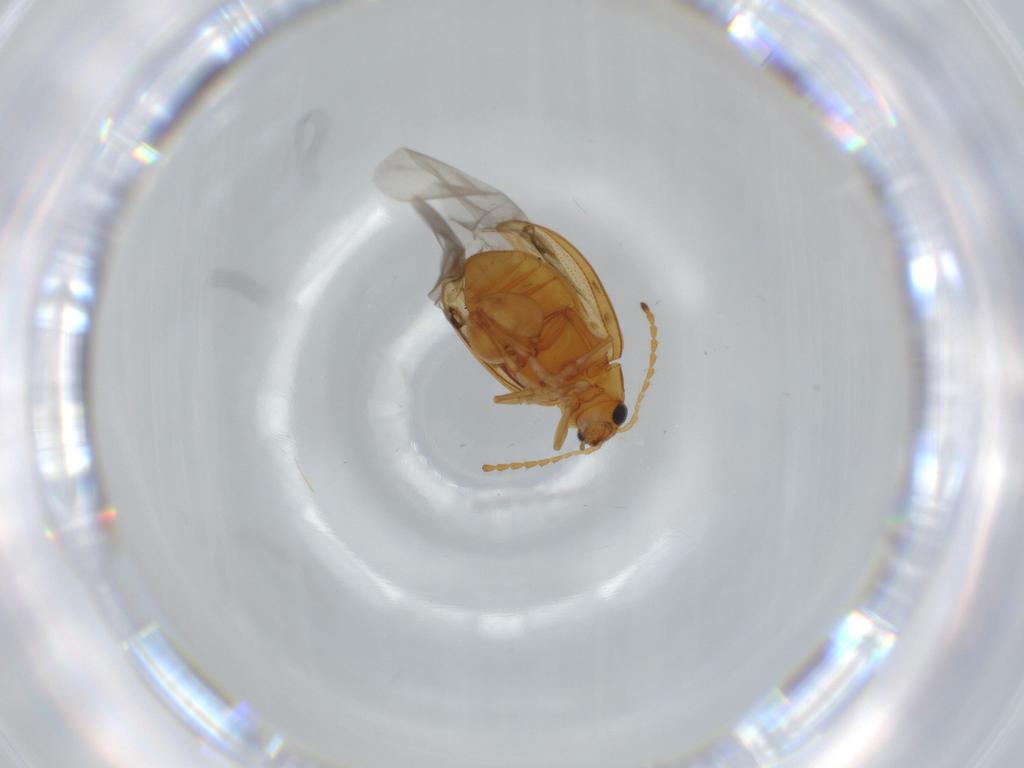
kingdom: Animalia
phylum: Arthropoda
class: Insecta
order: Coleoptera
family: Chrysomelidae
